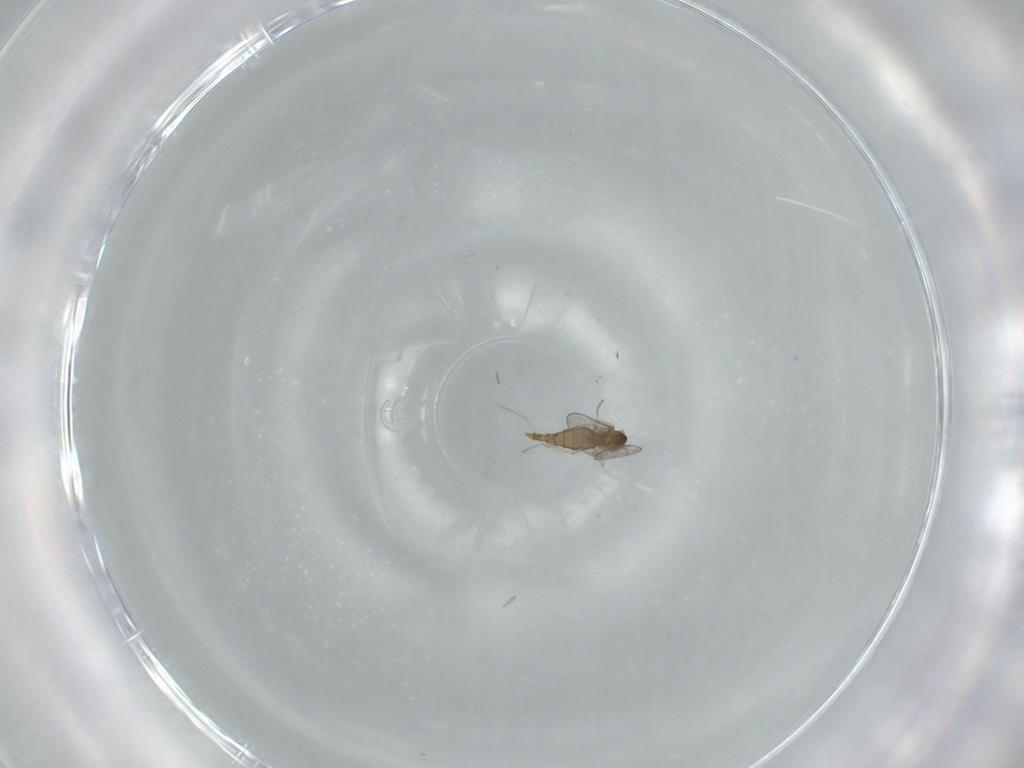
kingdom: Animalia
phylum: Arthropoda
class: Insecta
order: Diptera
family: Cecidomyiidae
